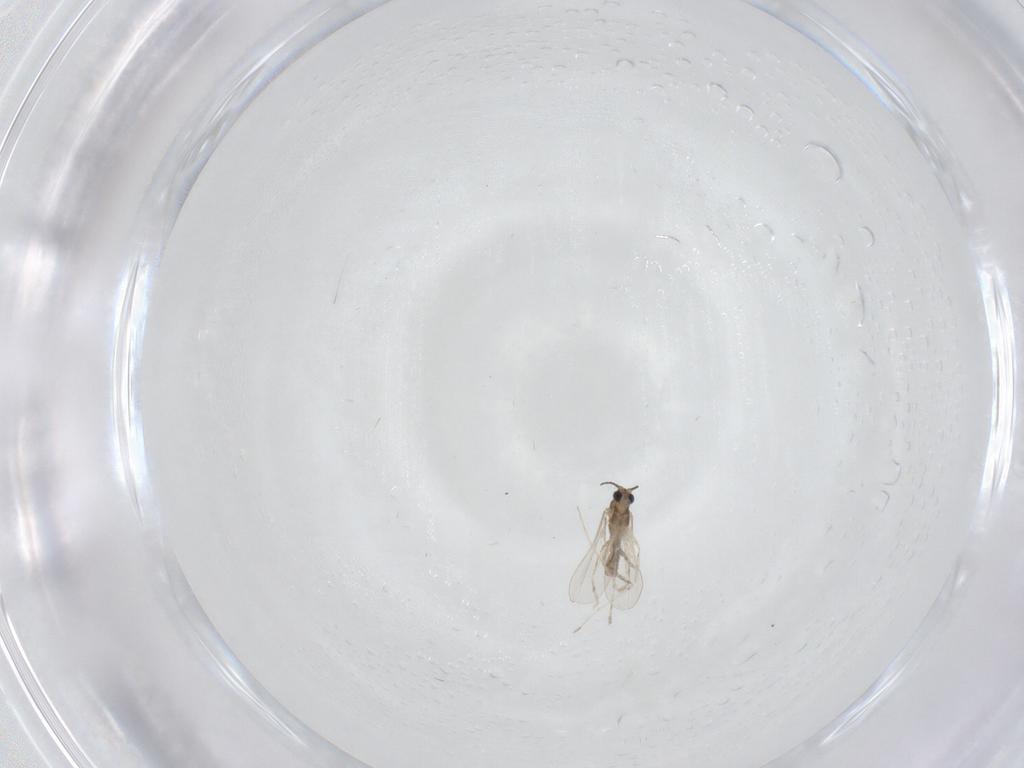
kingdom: Animalia
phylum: Arthropoda
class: Insecta
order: Diptera
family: Cecidomyiidae
